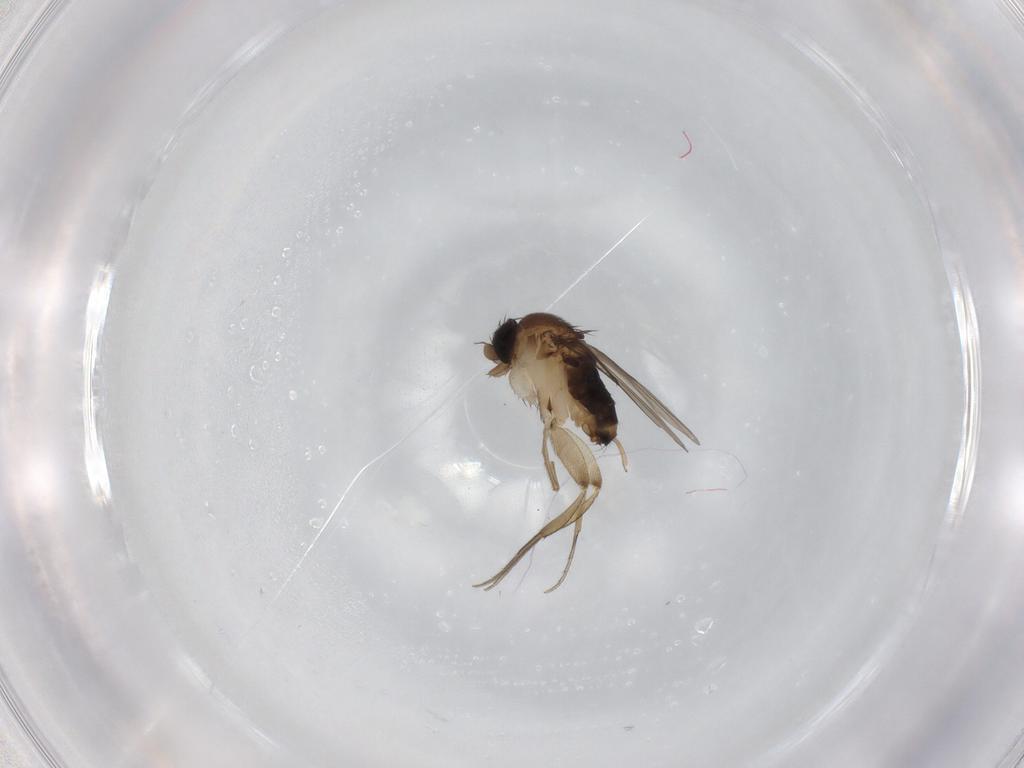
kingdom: Animalia
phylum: Arthropoda
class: Insecta
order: Diptera
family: Phoridae
